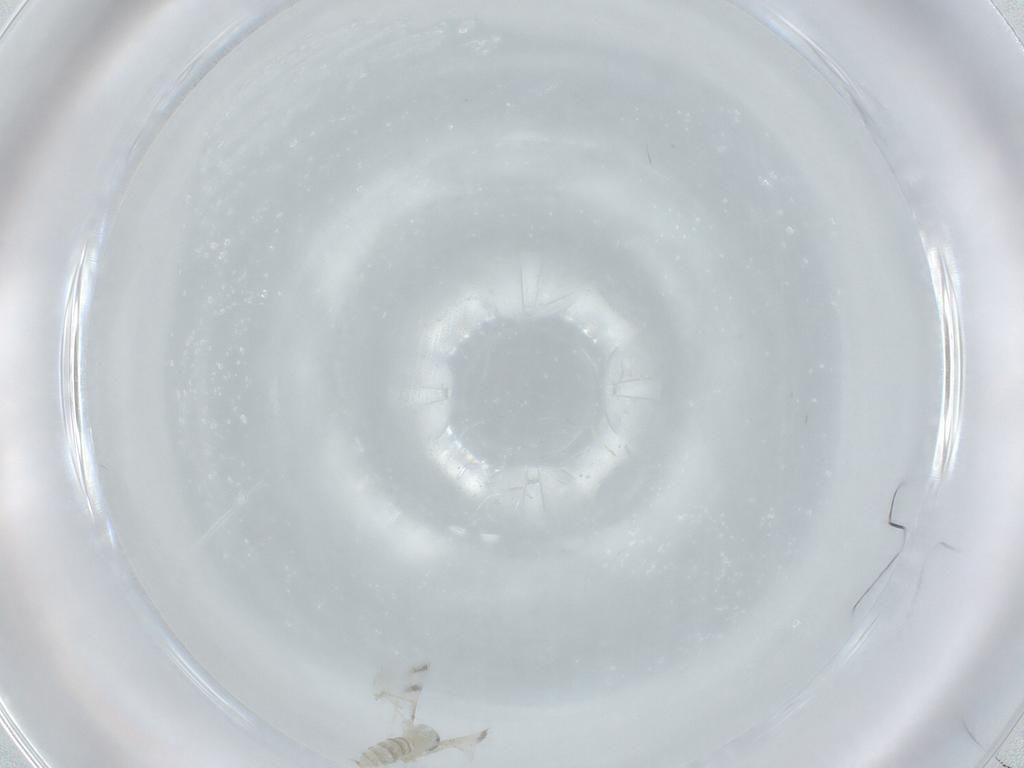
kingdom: Animalia
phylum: Arthropoda
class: Insecta
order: Diptera
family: Cecidomyiidae
